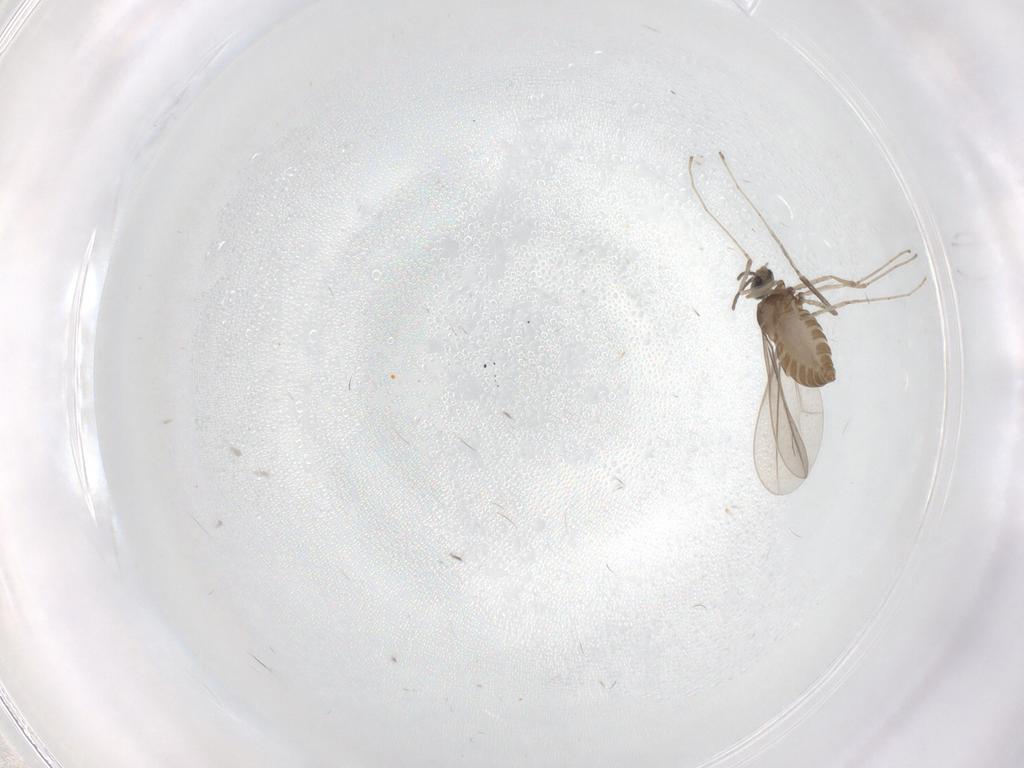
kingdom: Animalia
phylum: Arthropoda
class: Insecta
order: Diptera
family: Cecidomyiidae
